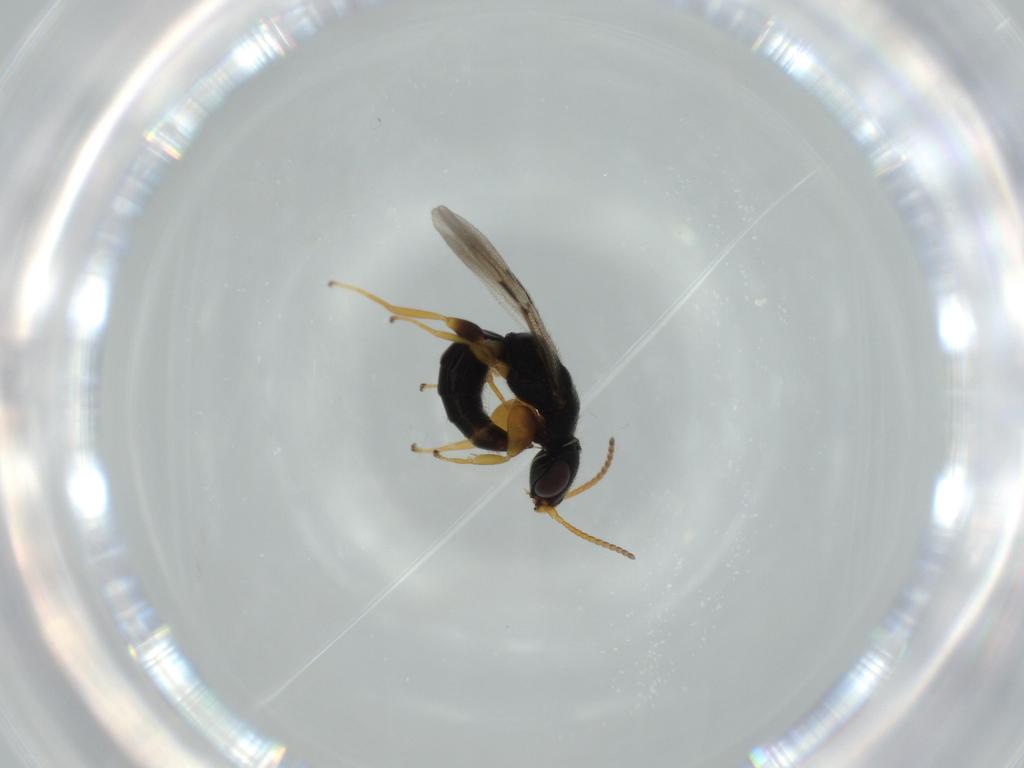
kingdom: Animalia
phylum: Arthropoda
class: Insecta
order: Hymenoptera
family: Bethylidae
